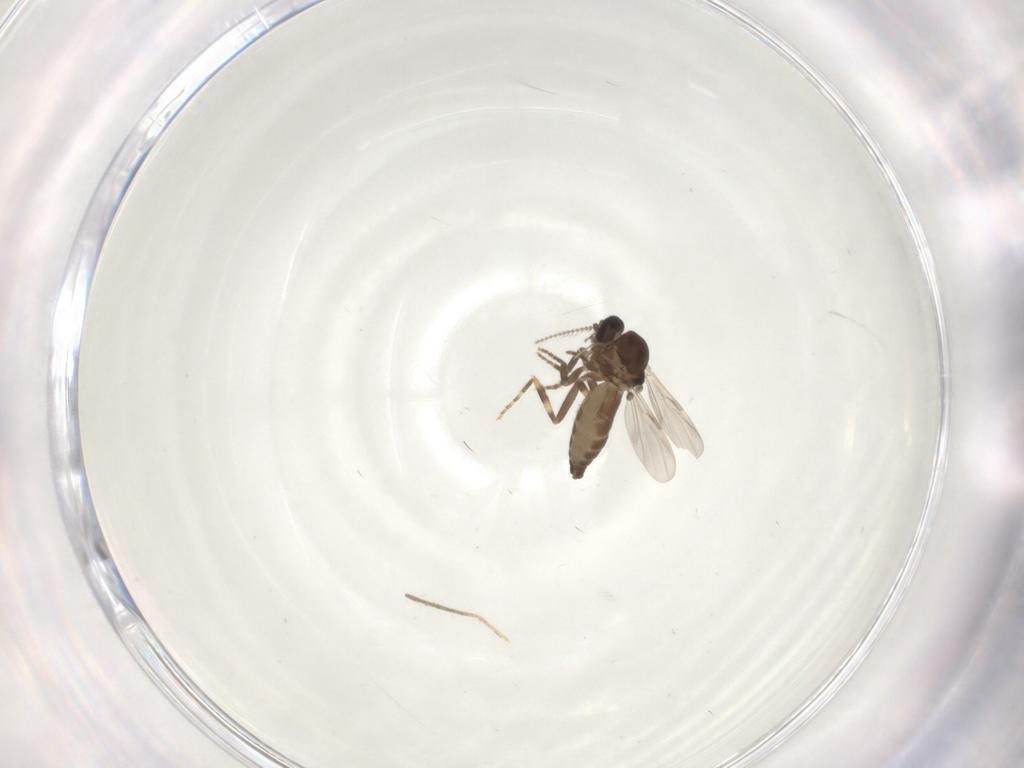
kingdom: Animalia
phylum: Arthropoda
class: Insecta
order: Diptera
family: Ceratopogonidae
